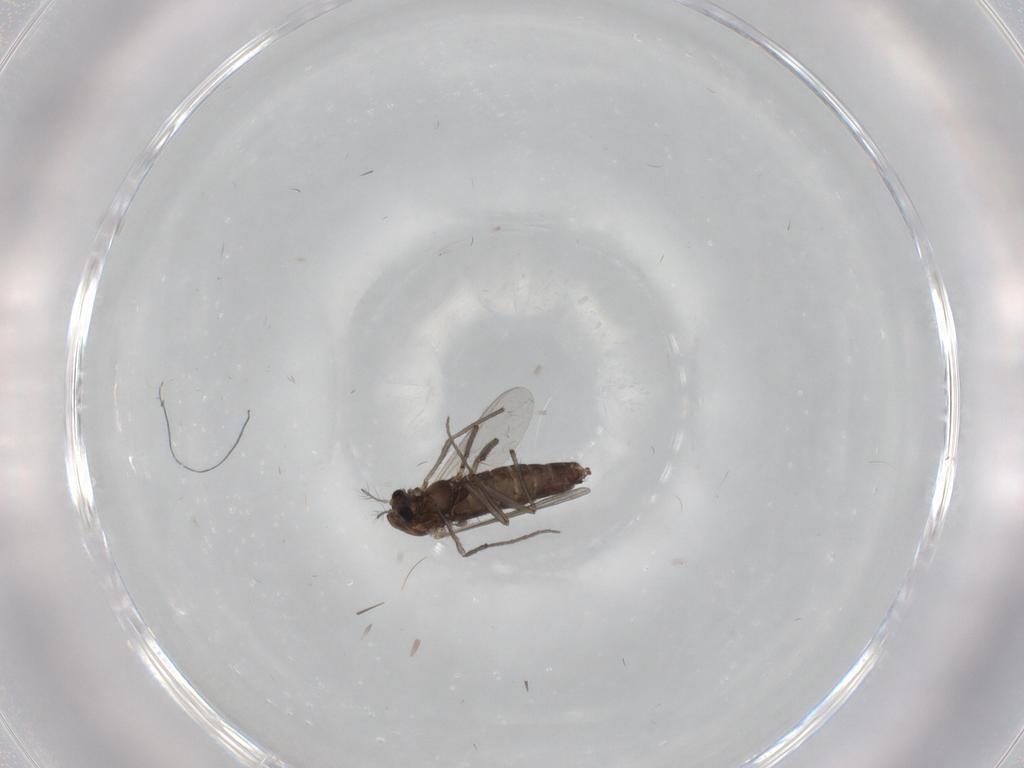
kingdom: Animalia
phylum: Arthropoda
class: Insecta
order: Diptera
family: Chironomidae
